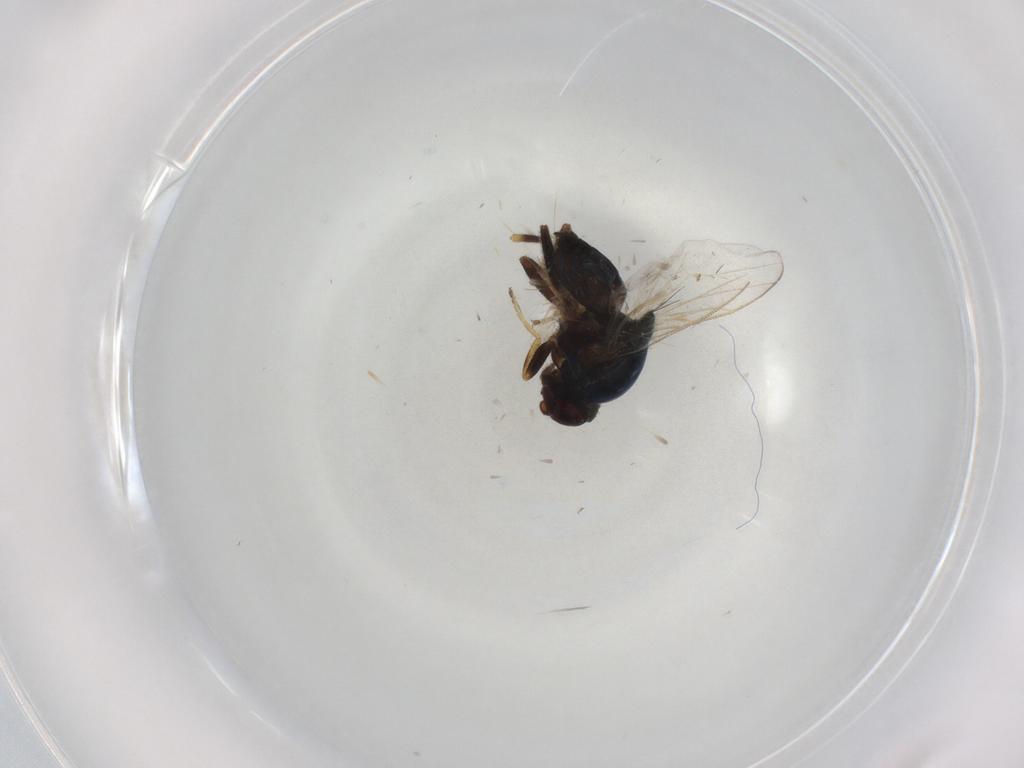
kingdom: Animalia
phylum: Arthropoda
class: Insecta
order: Diptera
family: Chloropidae
